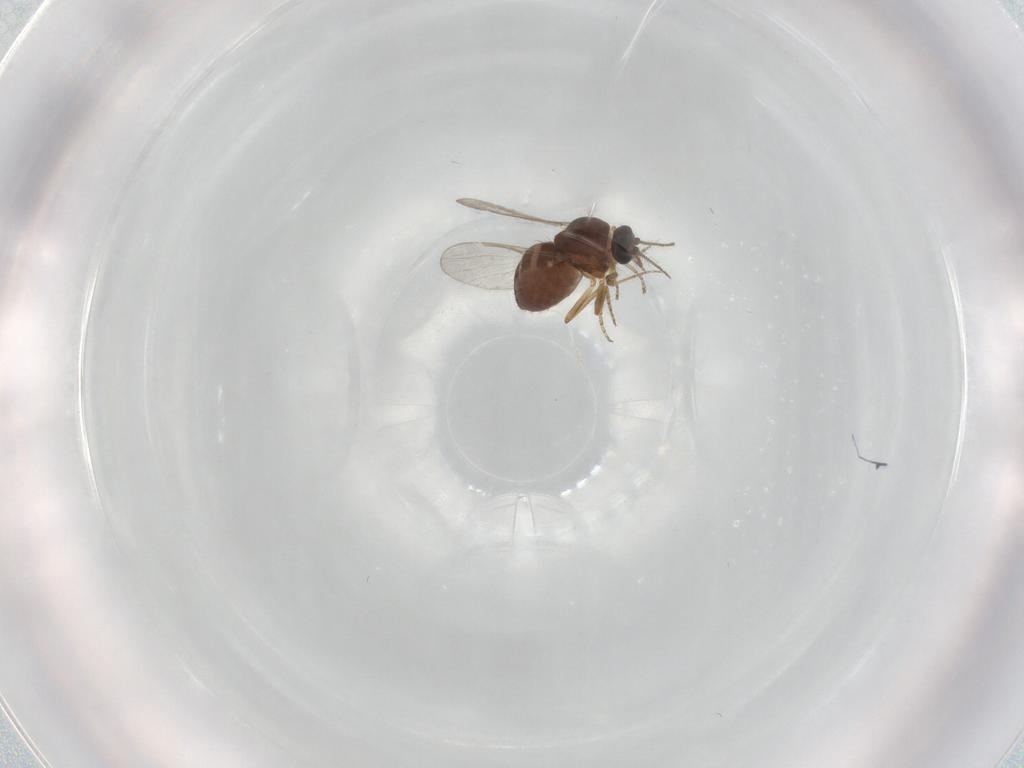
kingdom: Animalia
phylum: Arthropoda
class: Insecta
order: Diptera
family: Ceratopogonidae
